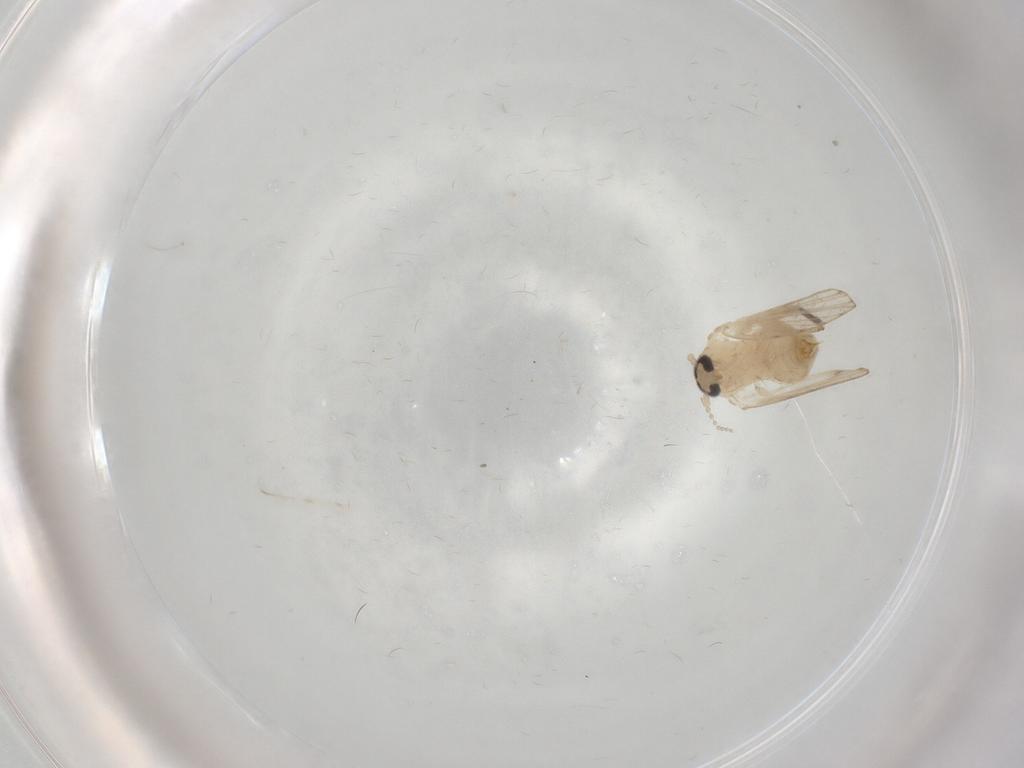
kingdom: Animalia
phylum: Arthropoda
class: Insecta
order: Diptera
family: Psychodidae
